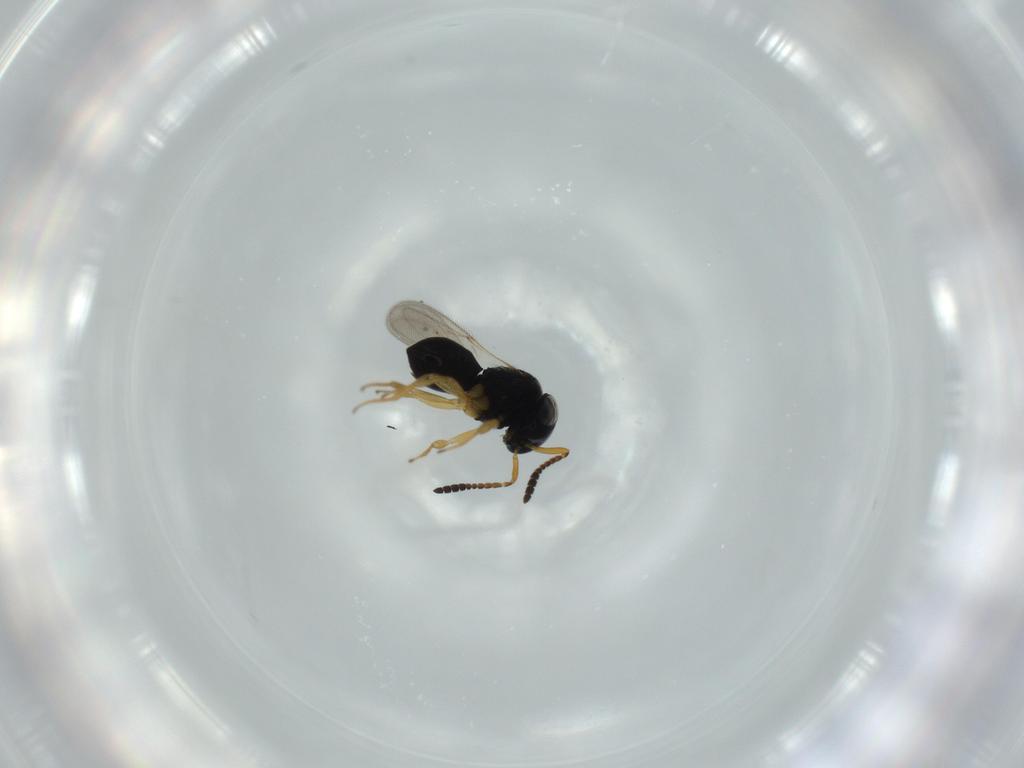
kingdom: Animalia
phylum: Arthropoda
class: Insecta
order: Hymenoptera
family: Scelionidae
